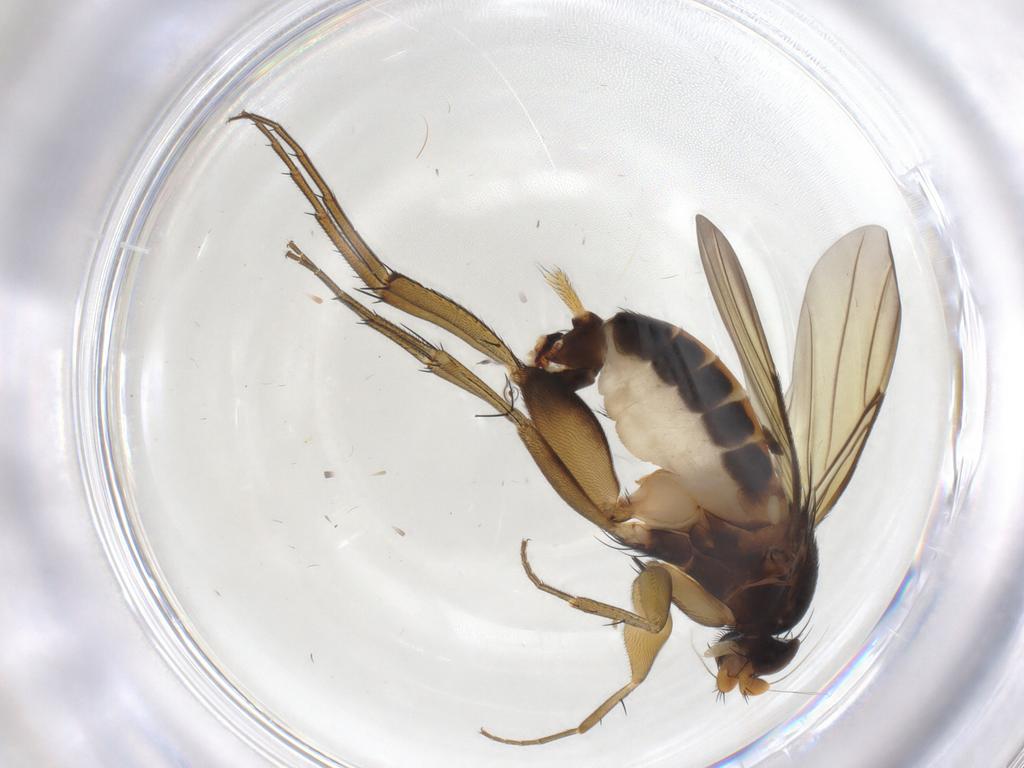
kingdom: Animalia
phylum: Arthropoda
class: Insecta
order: Diptera
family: Phoridae
